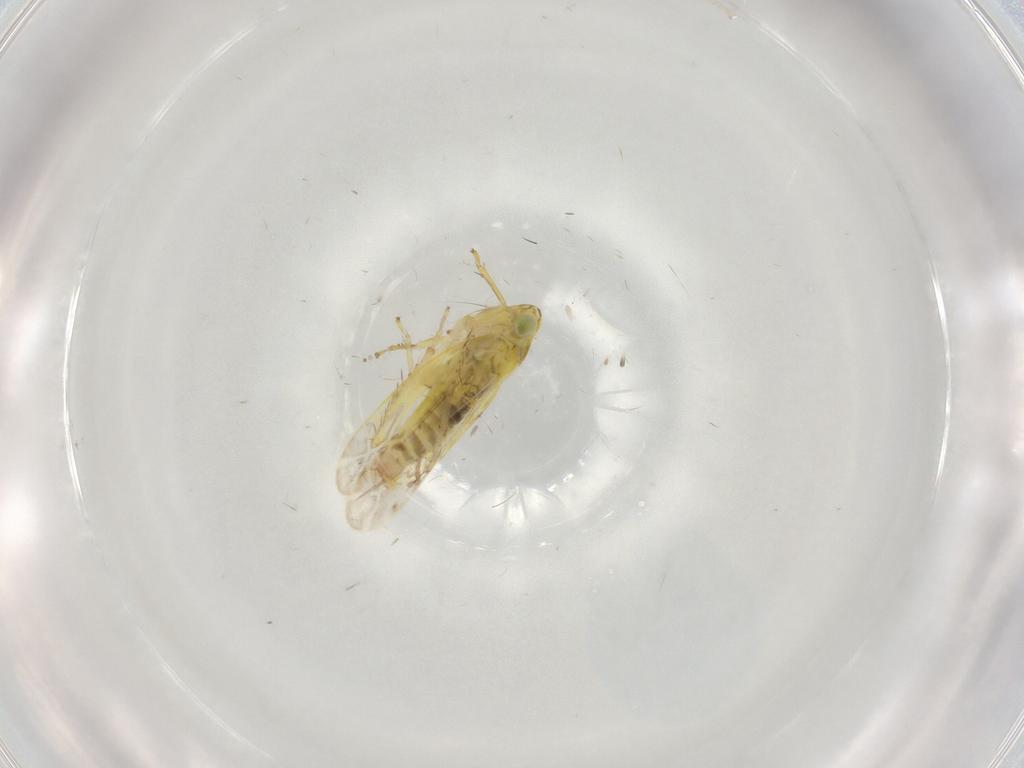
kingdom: Animalia
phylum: Arthropoda
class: Insecta
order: Hemiptera
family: Cicadellidae
